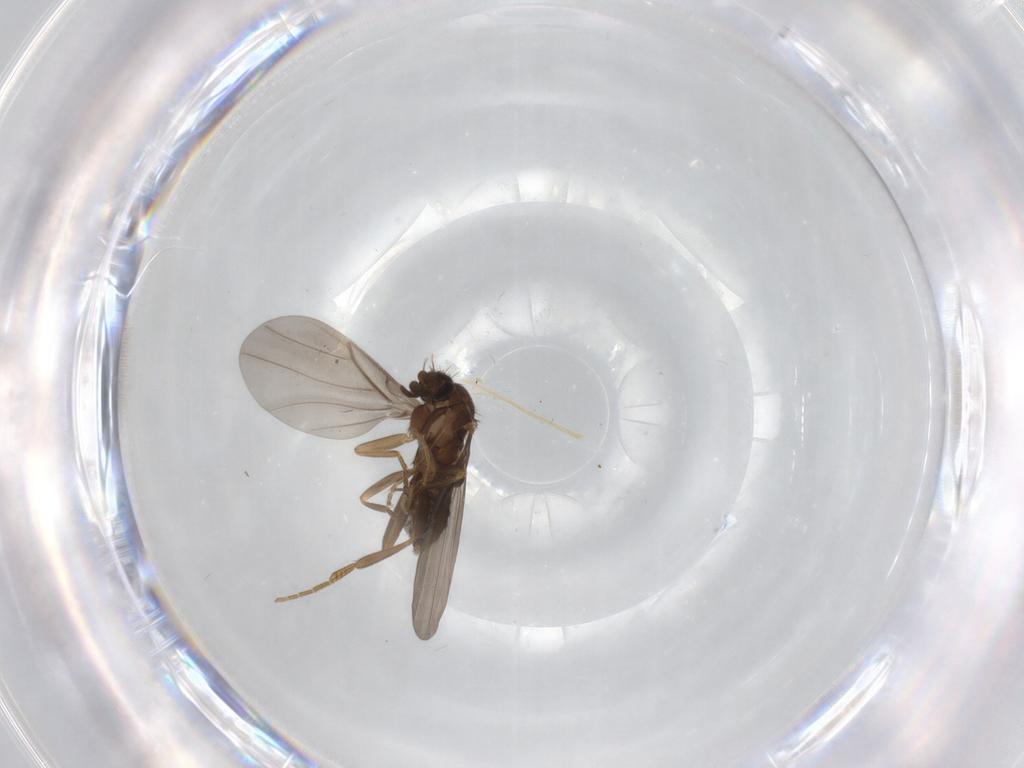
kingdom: Animalia
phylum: Arthropoda
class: Insecta
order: Diptera
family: Phoridae
